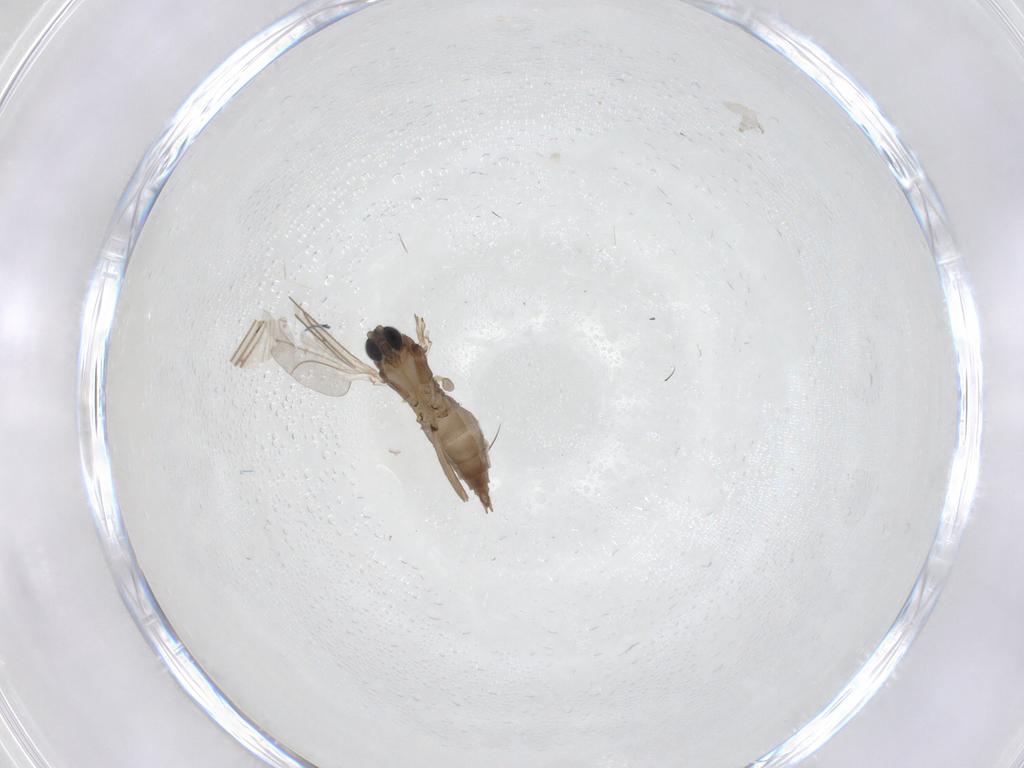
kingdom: Animalia
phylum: Arthropoda
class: Insecta
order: Diptera
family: Sciaridae
